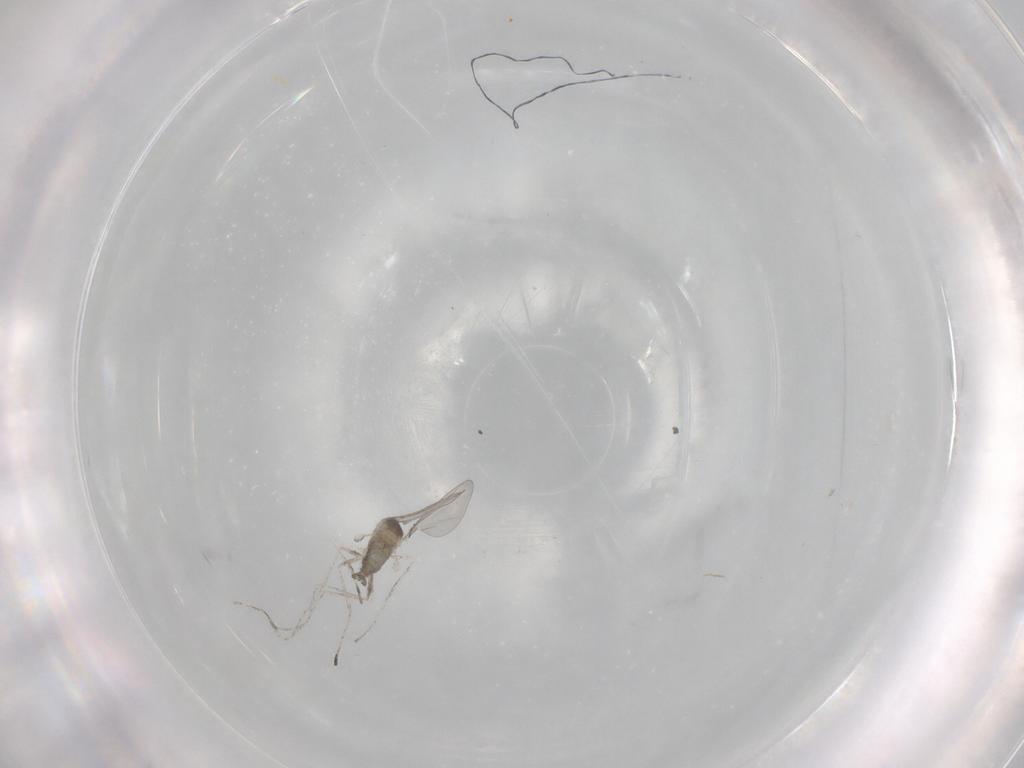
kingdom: Animalia
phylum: Arthropoda
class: Insecta
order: Diptera
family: Cecidomyiidae
